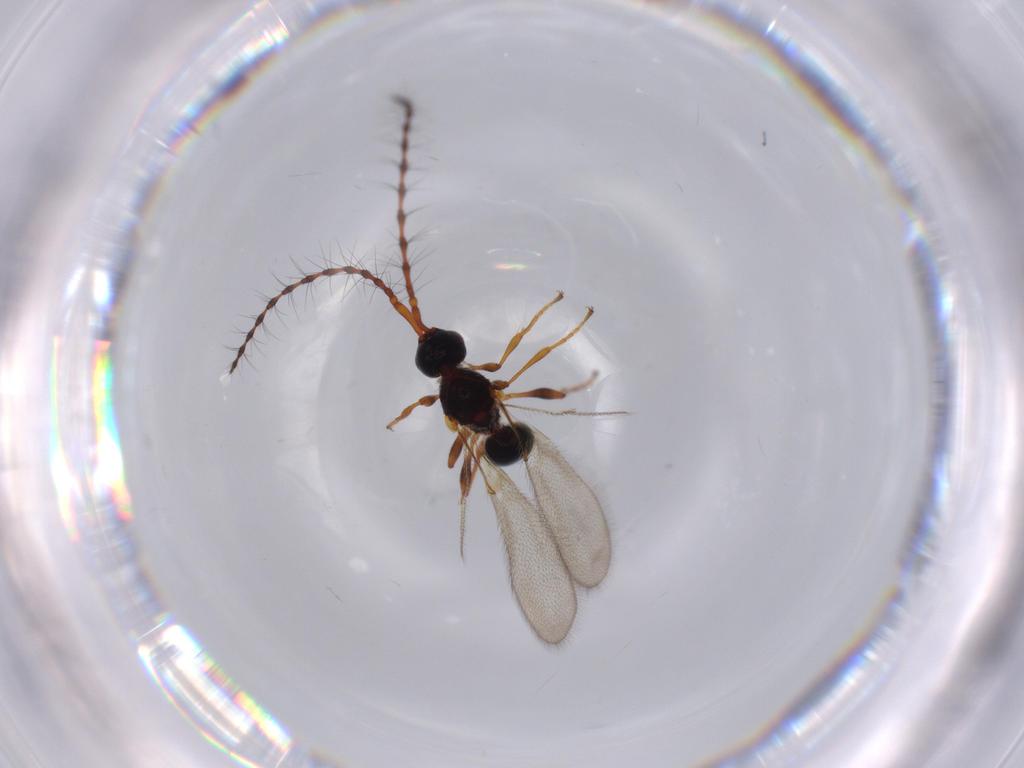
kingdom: Animalia
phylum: Arthropoda
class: Insecta
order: Hymenoptera
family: Diapriidae
